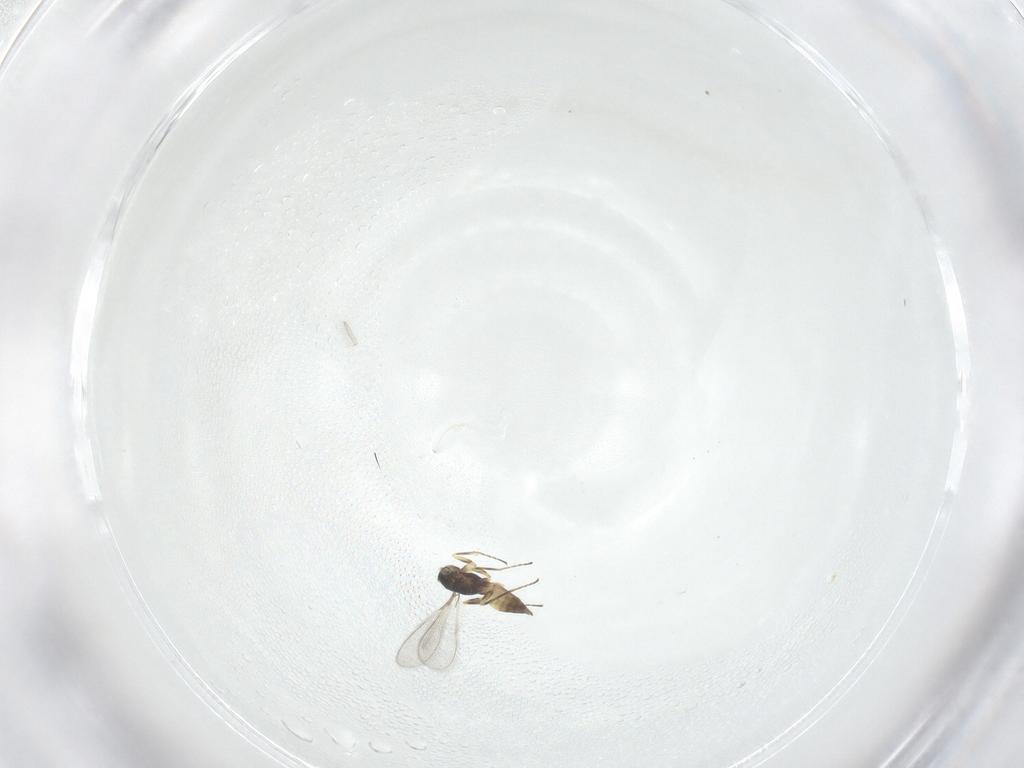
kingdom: Animalia
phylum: Arthropoda
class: Insecta
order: Hymenoptera
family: Mymaridae
